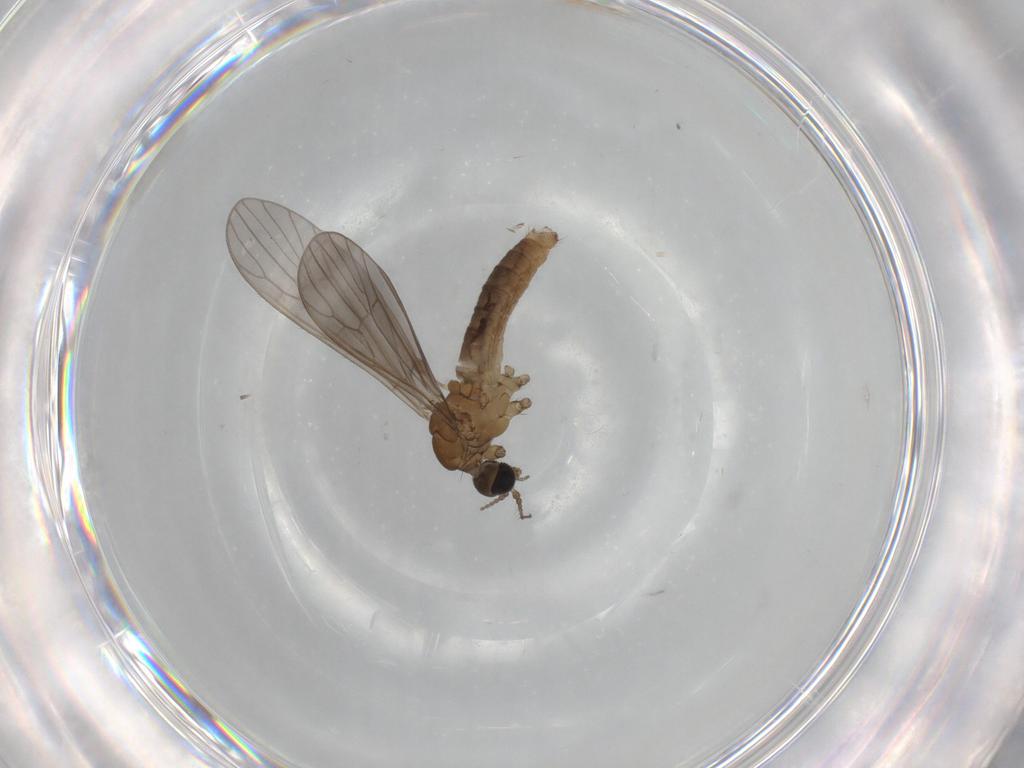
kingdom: Animalia
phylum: Arthropoda
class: Insecta
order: Diptera
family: Limoniidae
